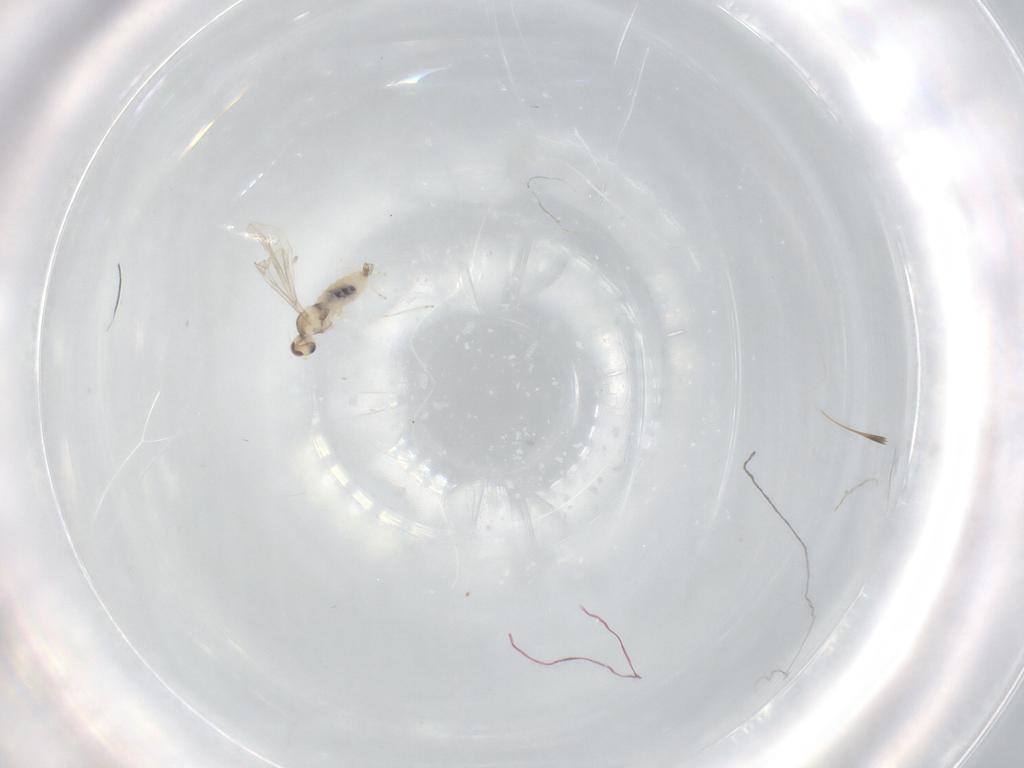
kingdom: Animalia
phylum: Arthropoda
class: Insecta
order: Diptera
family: Cecidomyiidae
